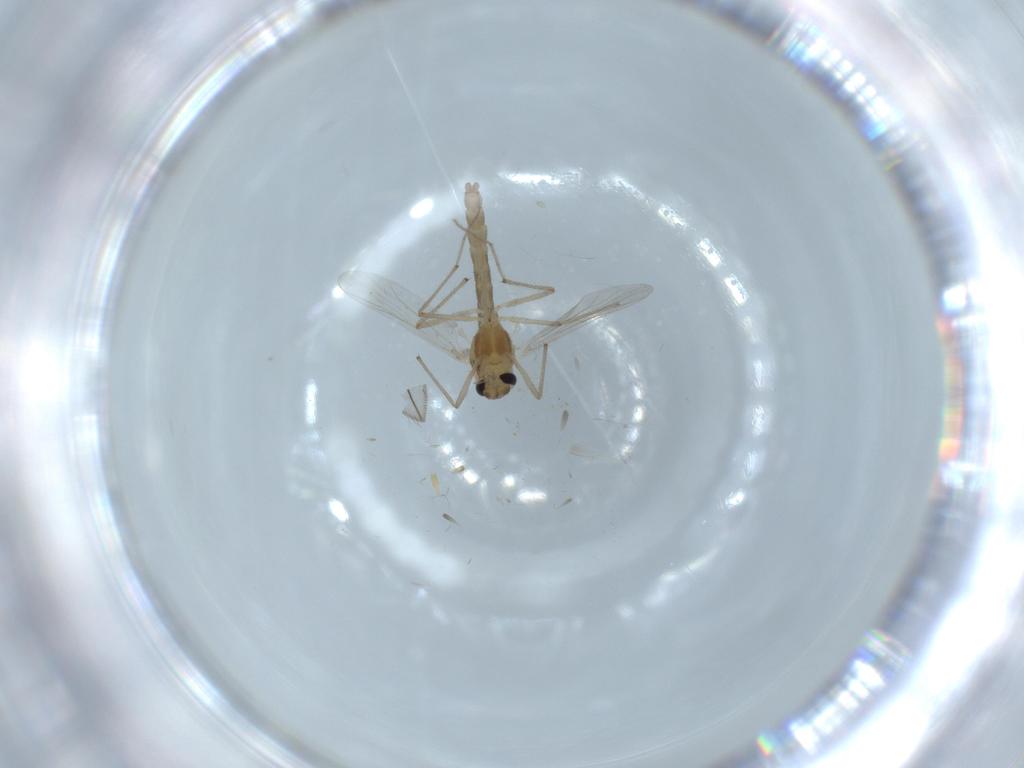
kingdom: Animalia
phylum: Arthropoda
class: Insecta
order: Diptera
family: Chironomidae
